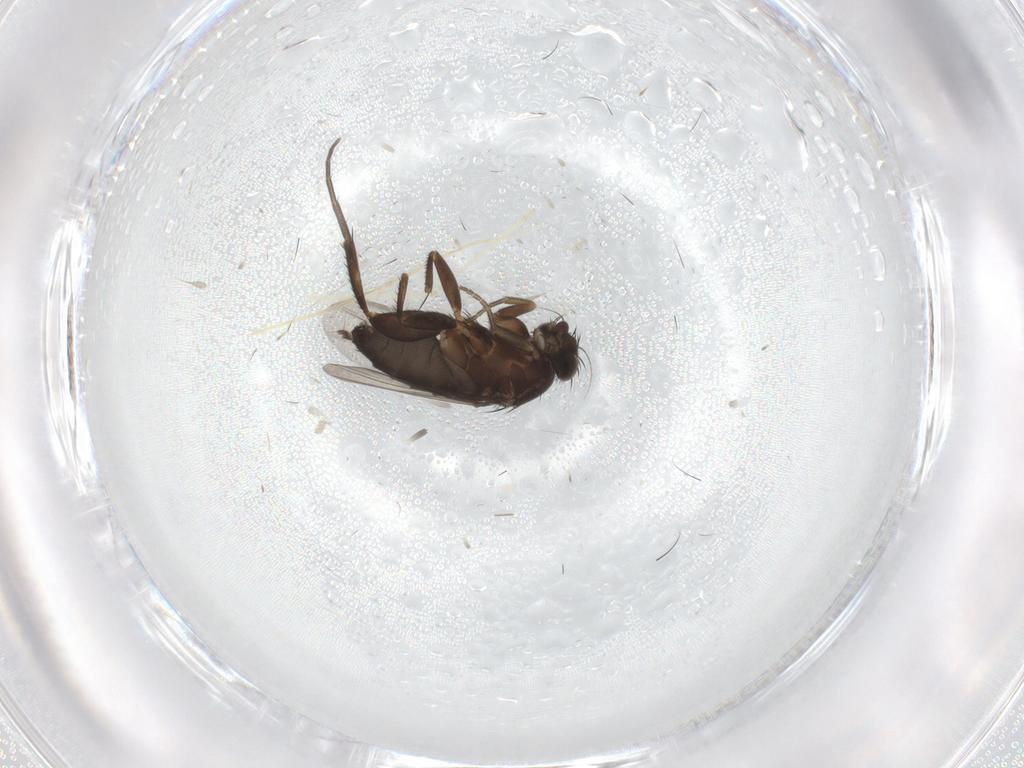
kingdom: Animalia
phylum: Arthropoda
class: Insecta
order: Diptera
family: Phoridae
